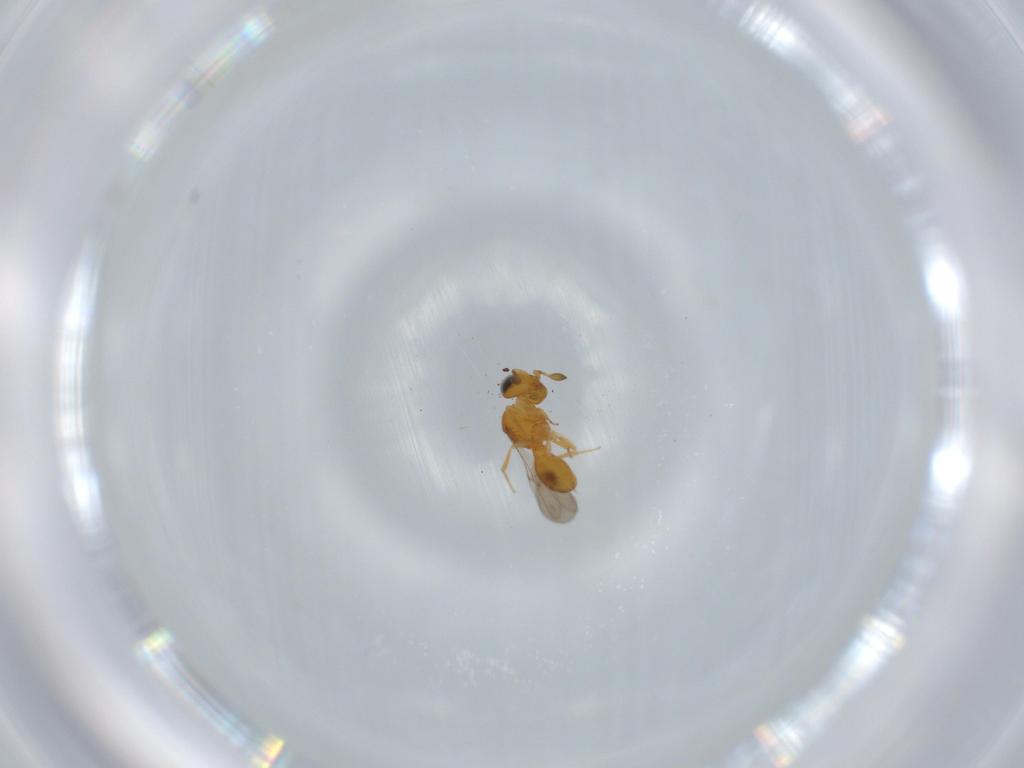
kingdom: Animalia
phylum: Arthropoda
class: Insecta
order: Hymenoptera
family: Scelionidae
